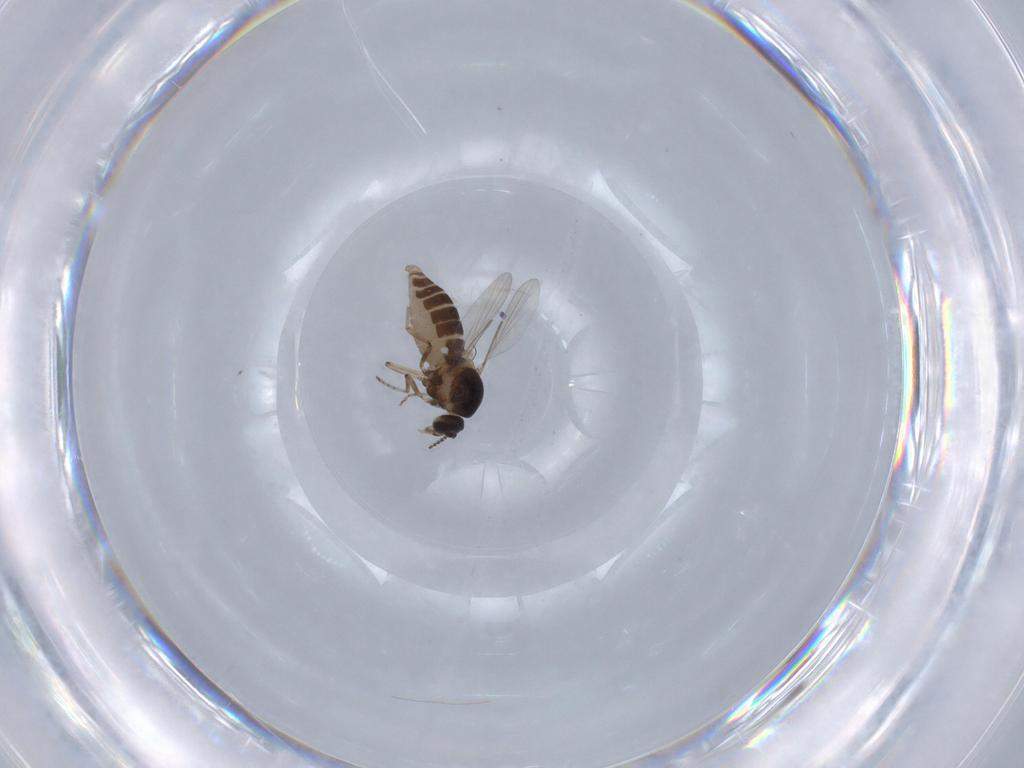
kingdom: Animalia
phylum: Arthropoda
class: Insecta
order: Diptera
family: Ceratopogonidae
